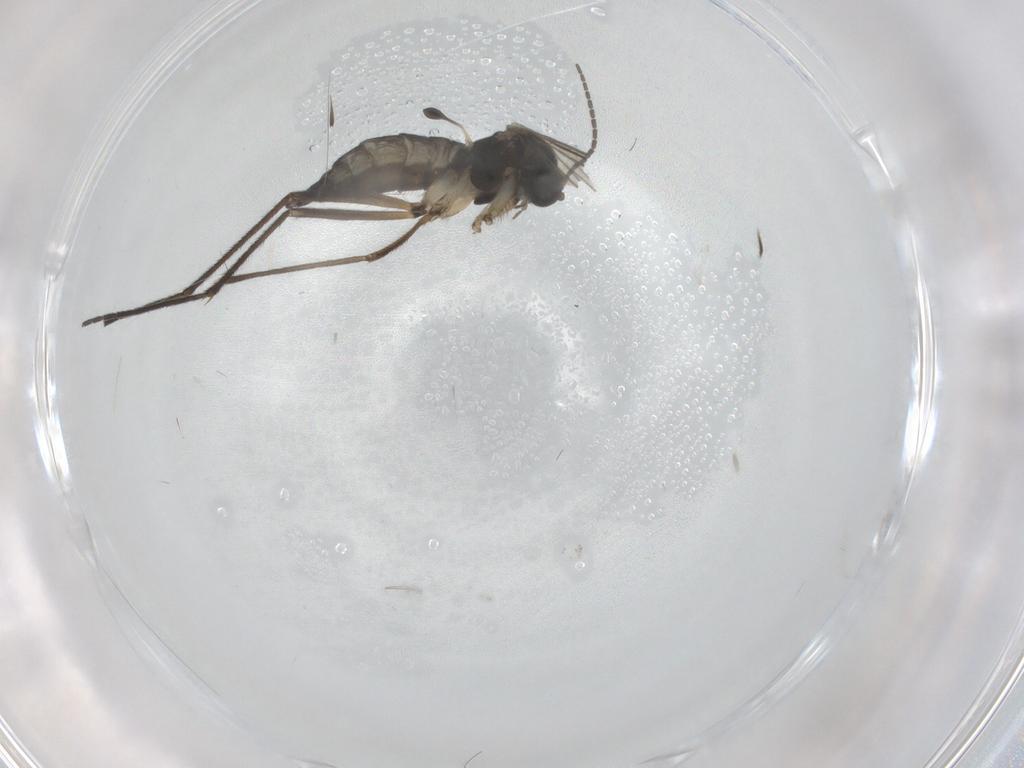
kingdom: Animalia
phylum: Arthropoda
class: Insecta
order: Diptera
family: Sciaridae
